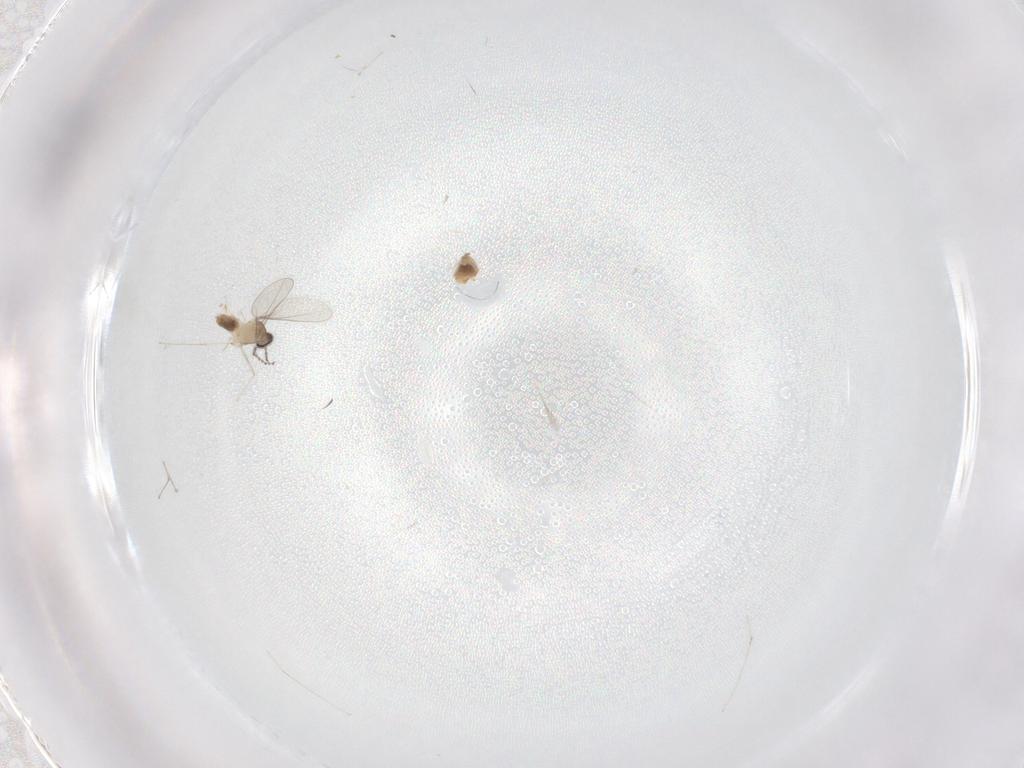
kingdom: Animalia
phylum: Arthropoda
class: Insecta
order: Diptera
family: Cecidomyiidae
